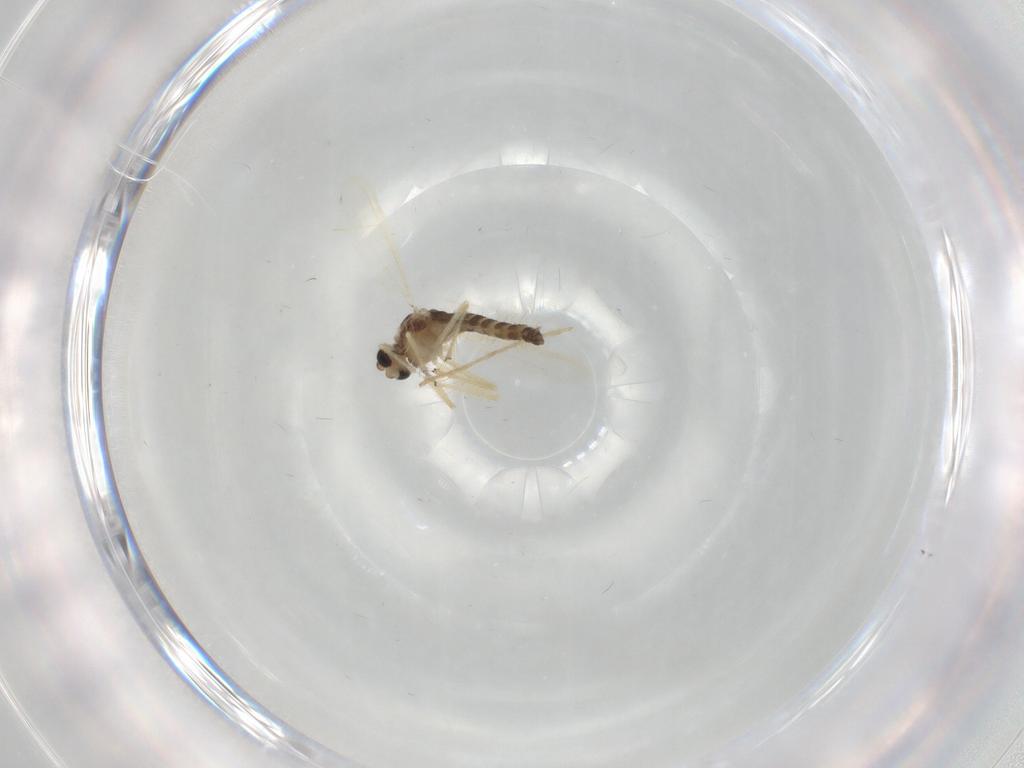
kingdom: Animalia
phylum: Arthropoda
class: Insecta
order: Diptera
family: Chironomidae
